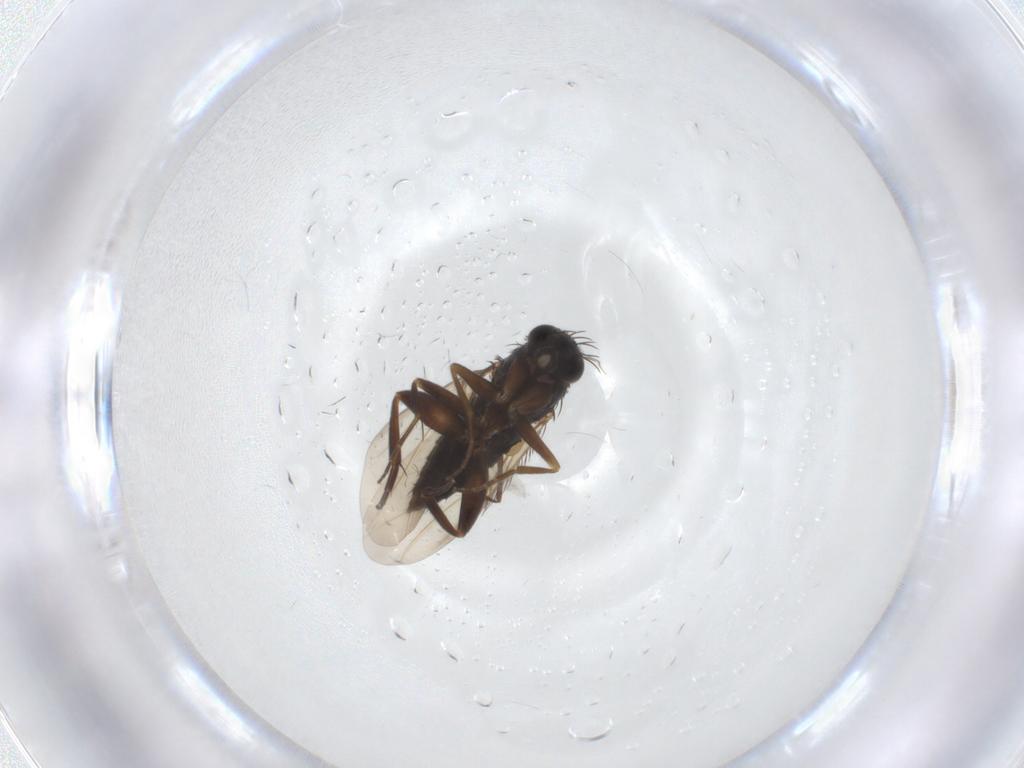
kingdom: Animalia
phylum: Arthropoda
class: Insecta
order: Diptera
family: Phoridae
